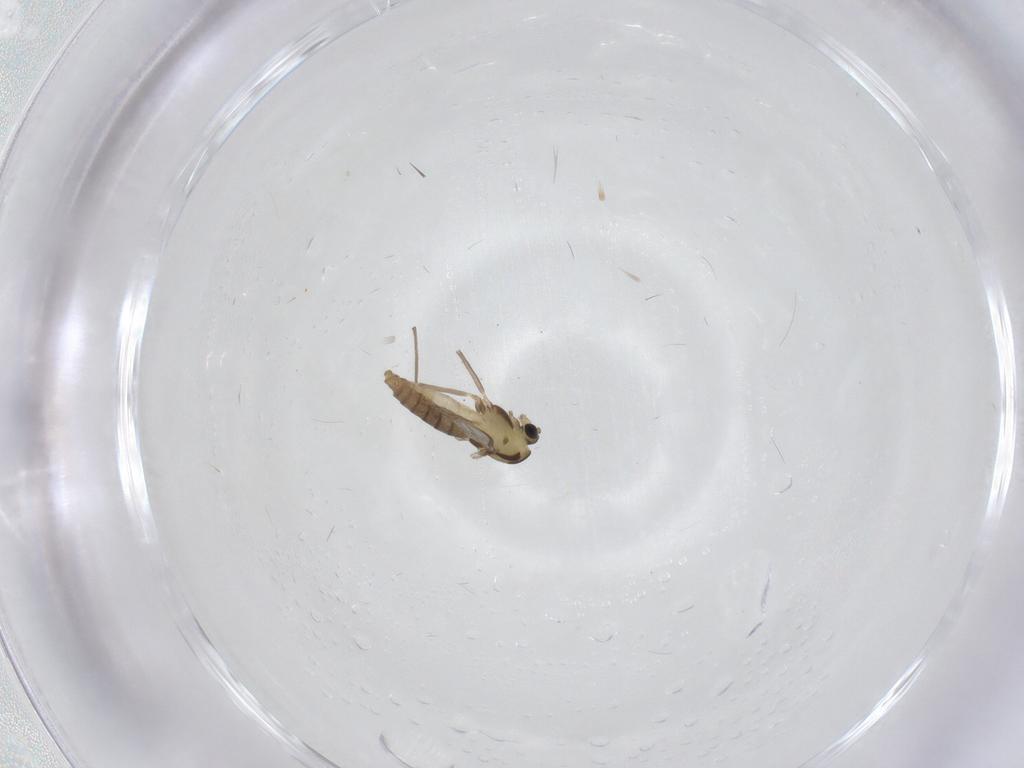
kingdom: Animalia
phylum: Arthropoda
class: Insecta
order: Diptera
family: Chironomidae
